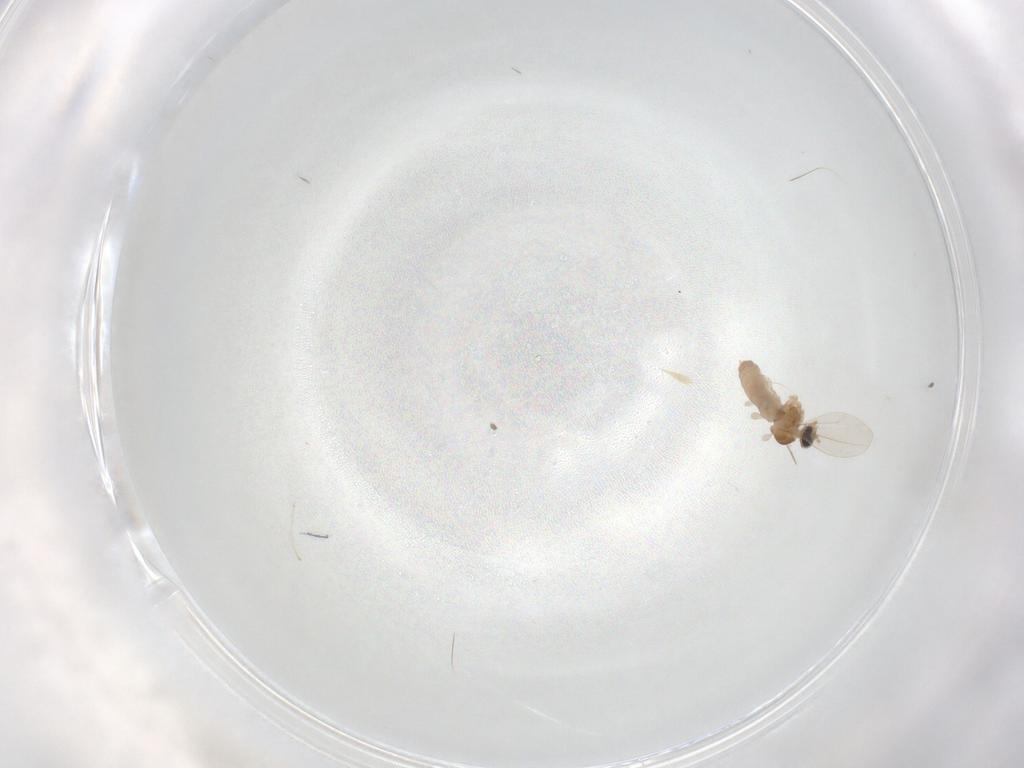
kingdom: Animalia
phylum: Arthropoda
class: Insecta
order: Diptera
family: Cecidomyiidae
